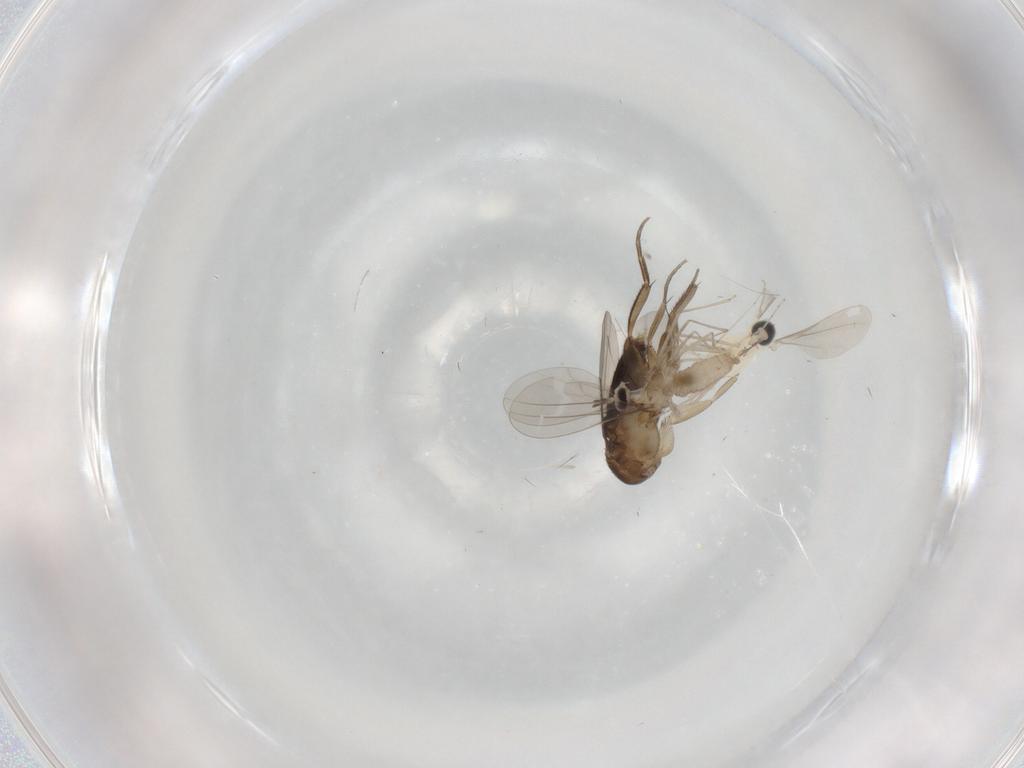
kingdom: Animalia
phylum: Arthropoda
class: Insecta
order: Diptera
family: Cecidomyiidae
